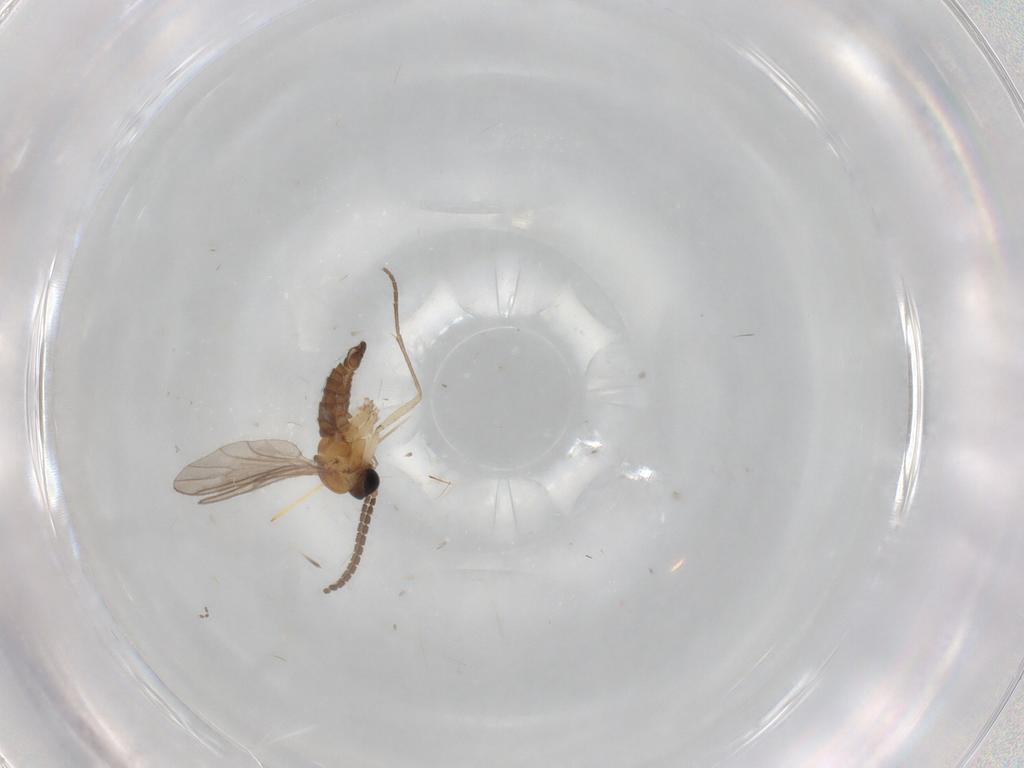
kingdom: Animalia
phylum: Arthropoda
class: Insecta
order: Diptera
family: Sciaridae
